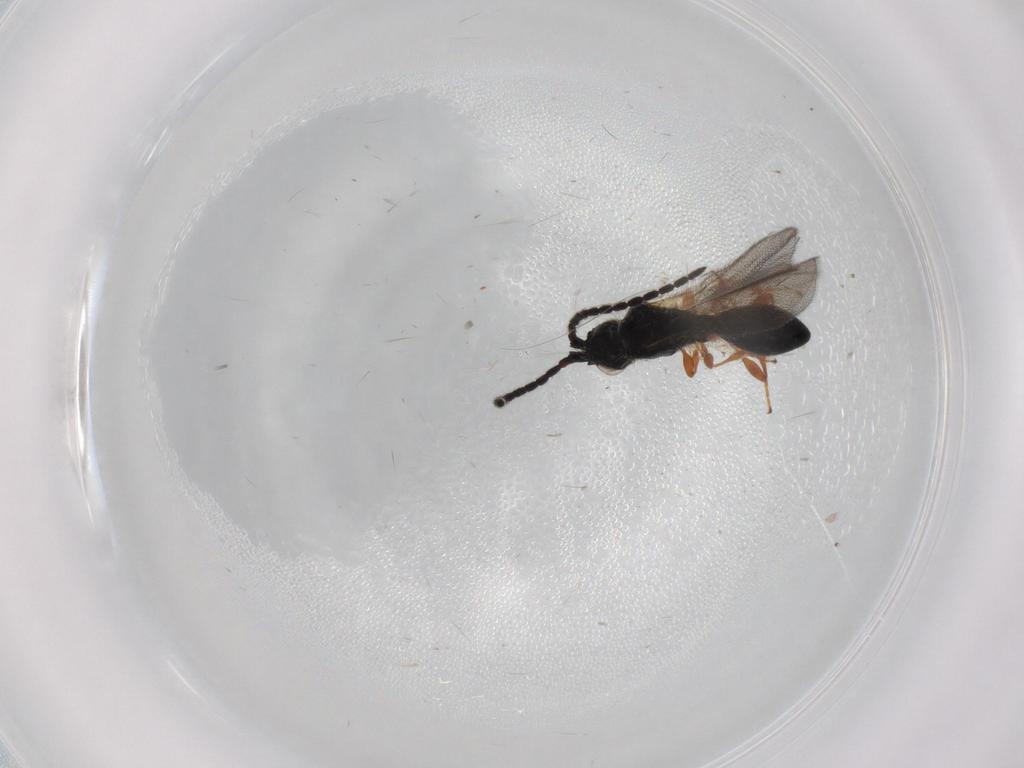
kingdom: Animalia
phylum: Arthropoda
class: Insecta
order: Hymenoptera
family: Diapriidae
